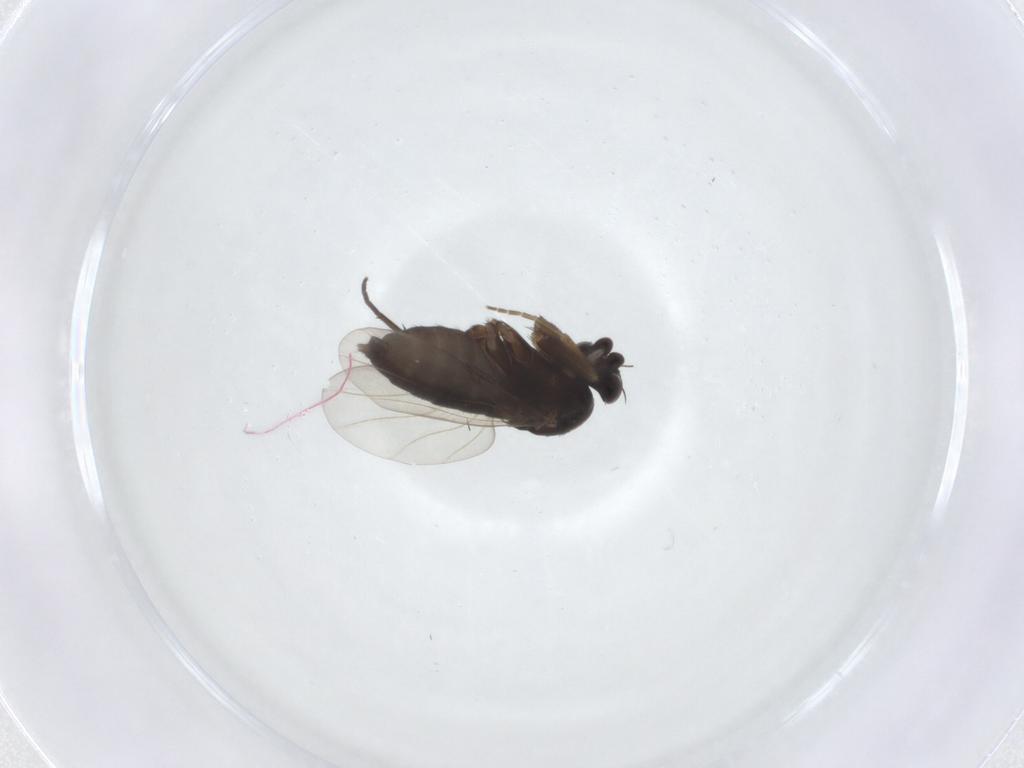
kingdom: Animalia
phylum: Arthropoda
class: Insecta
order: Diptera
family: Phoridae
